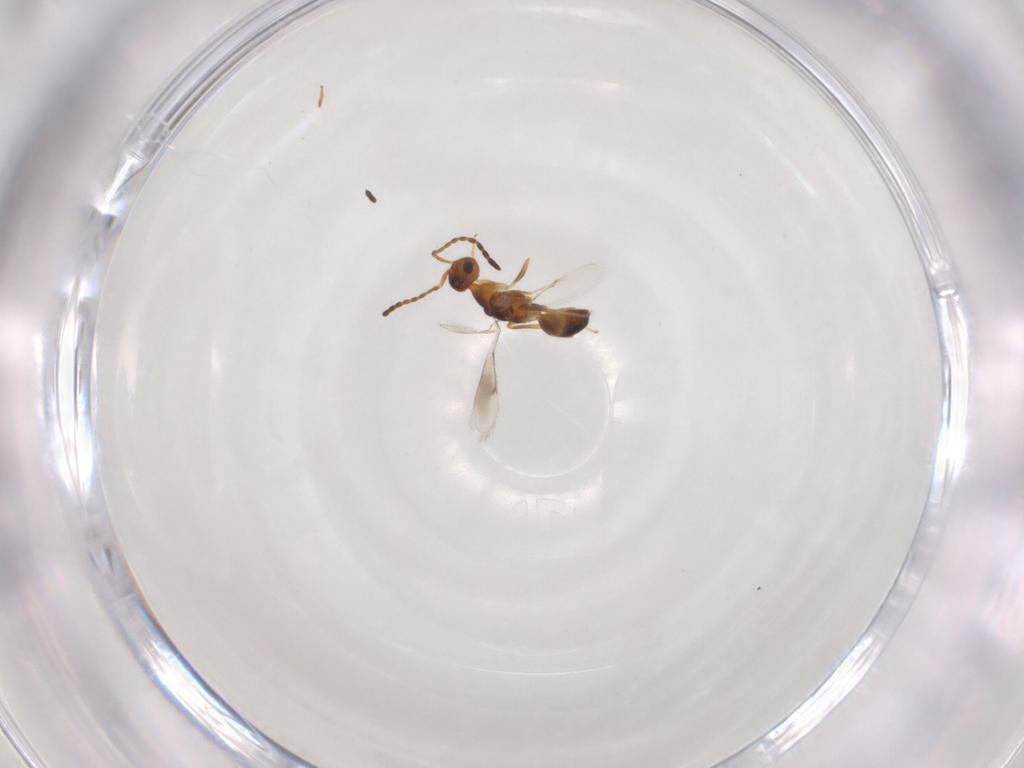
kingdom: Animalia
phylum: Arthropoda
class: Insecta
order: Hymenoptera
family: Cerocephalidae
